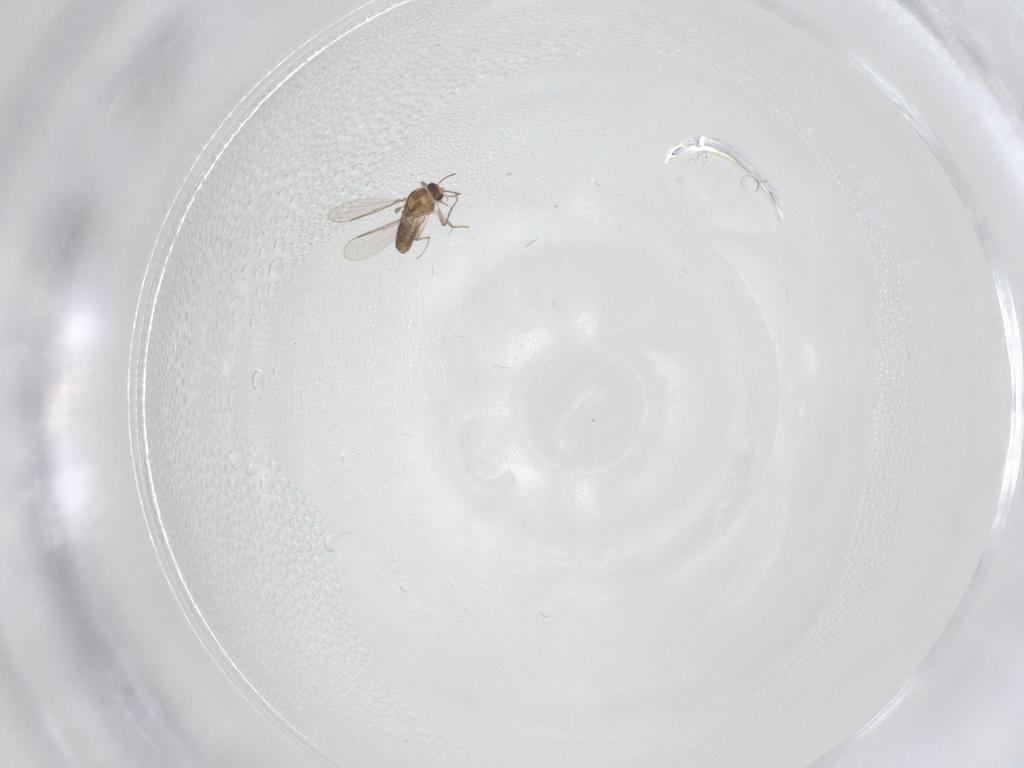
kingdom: Animalia
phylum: Arthropoda
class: Insecta
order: Diptera
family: Chironomidae
